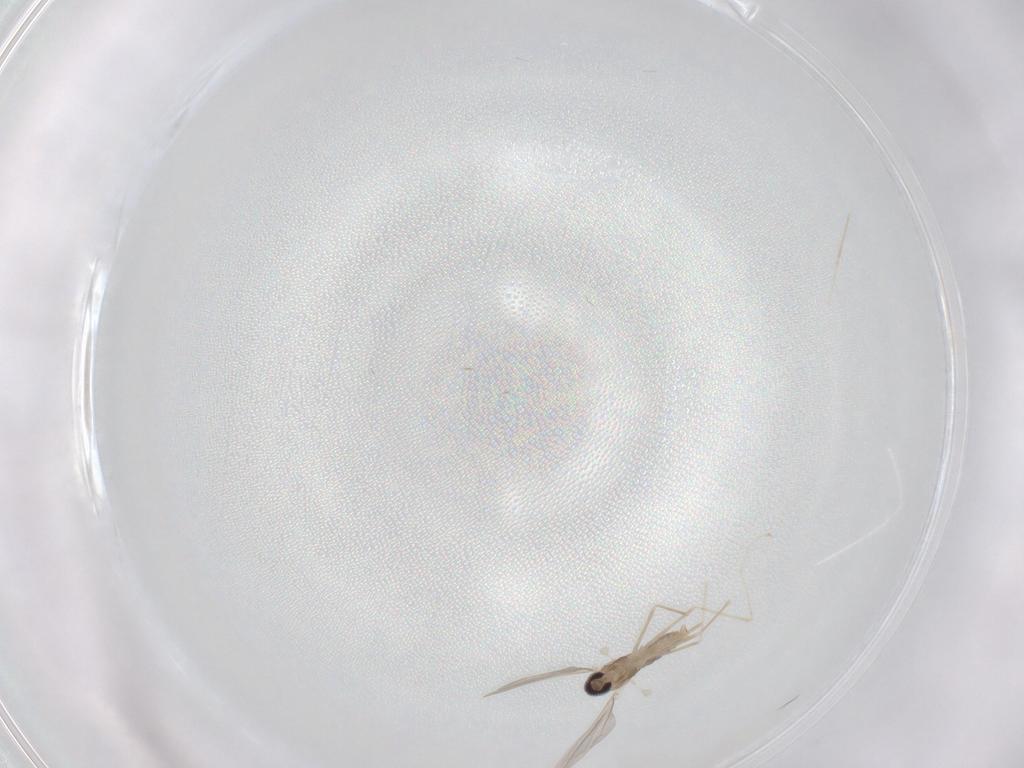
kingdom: Animalia
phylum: Arthropoda
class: Insecta
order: Diptera
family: Cecidomyiidae
